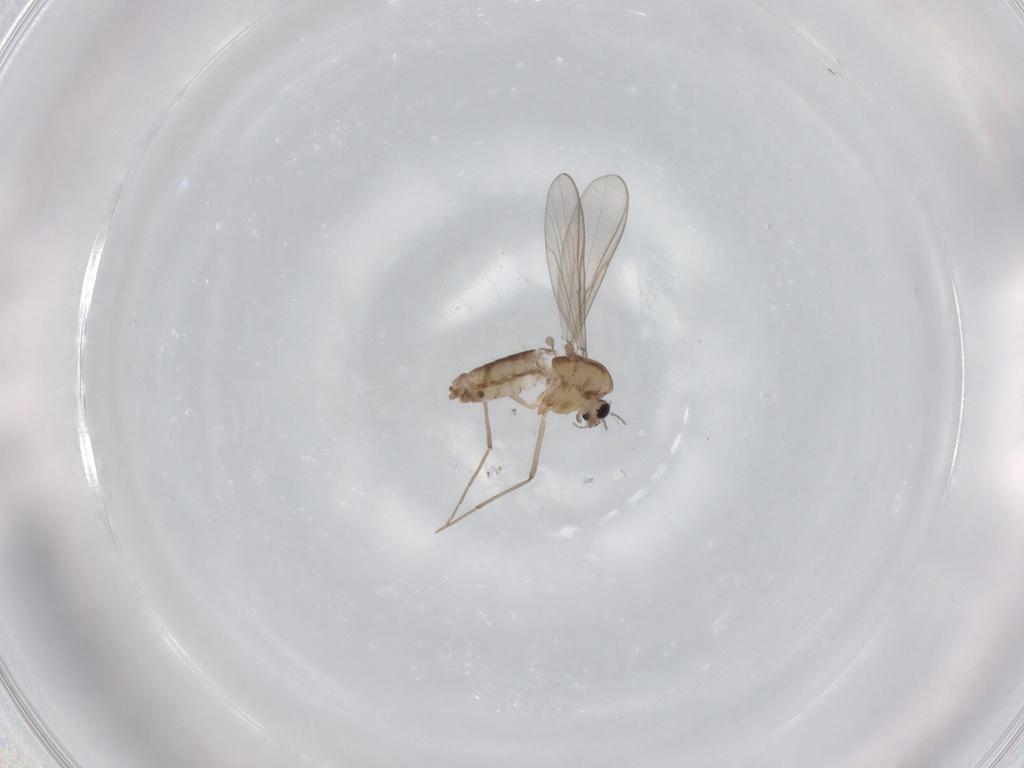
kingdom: Animalia
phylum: Arthropoda
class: Insecta
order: Diptera
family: Chironomidae
